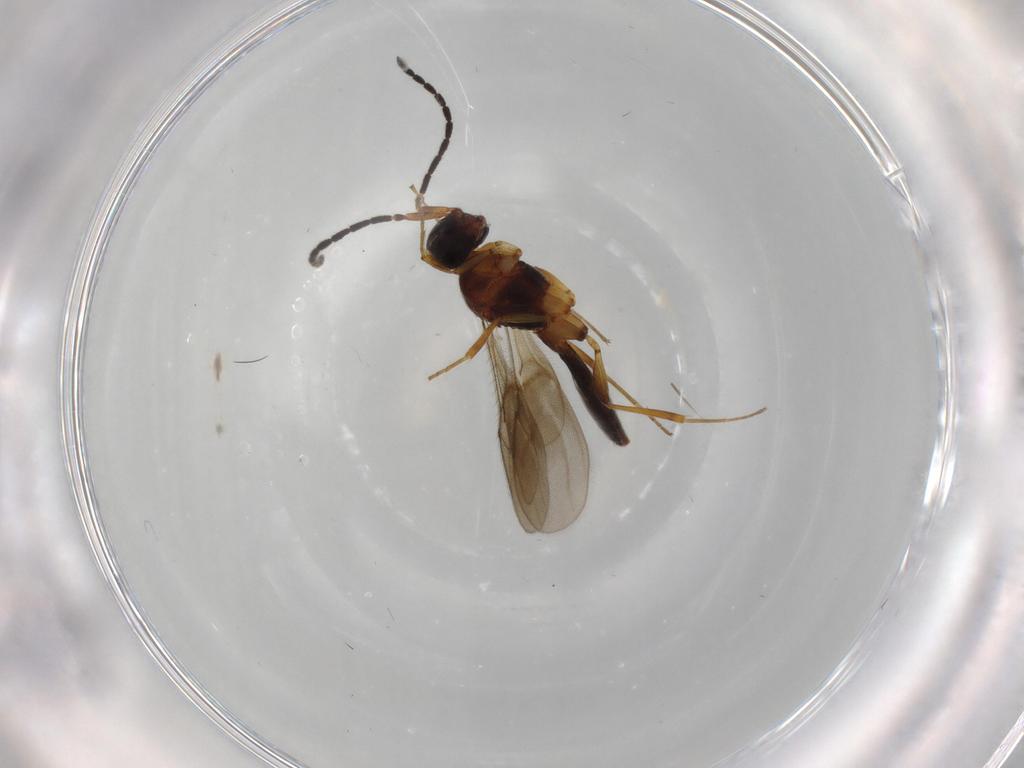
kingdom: Animalia
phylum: Arthropoda
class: Insecta
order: Hymenoptera
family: Scelionidae
